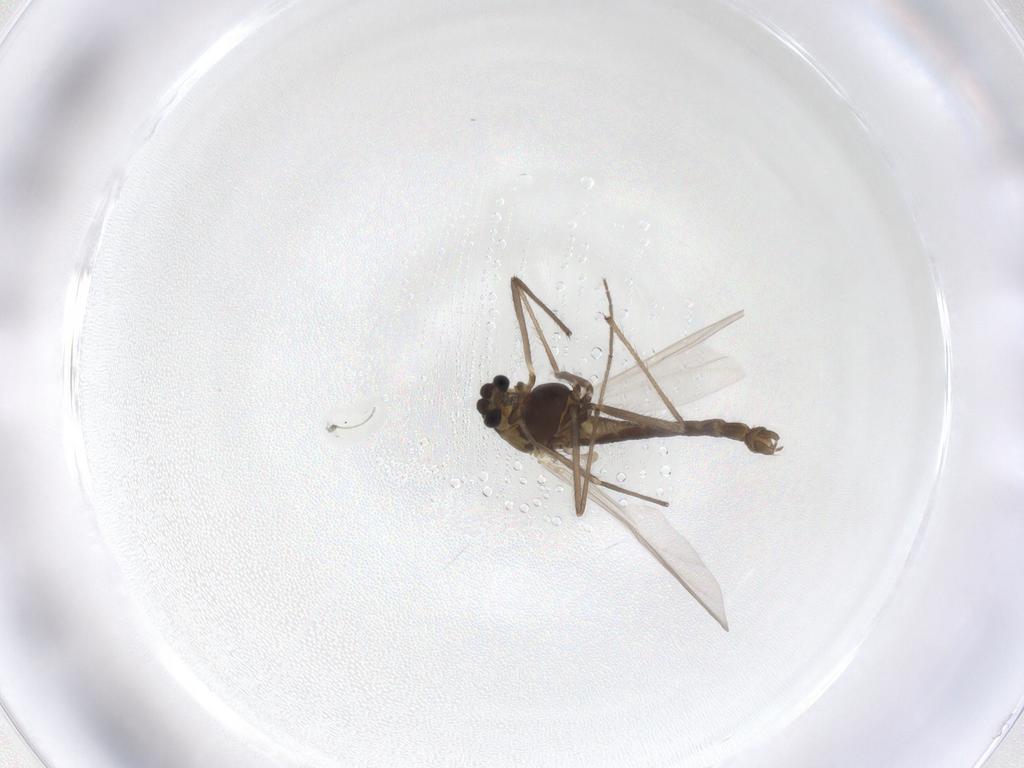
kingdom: Animalia
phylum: Arthropoda
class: Insecta
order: Diptera
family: Chironomidae
